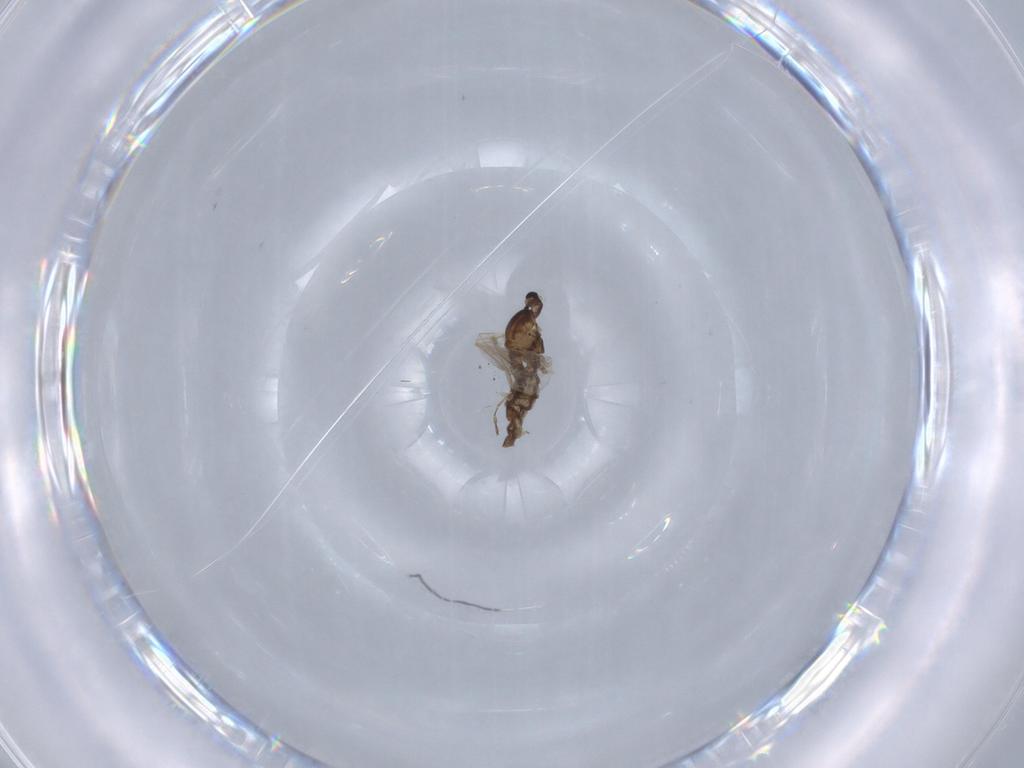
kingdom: Animalia
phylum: Arthropoda
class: Insecta
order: Diptera
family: Cecidomyiidae
